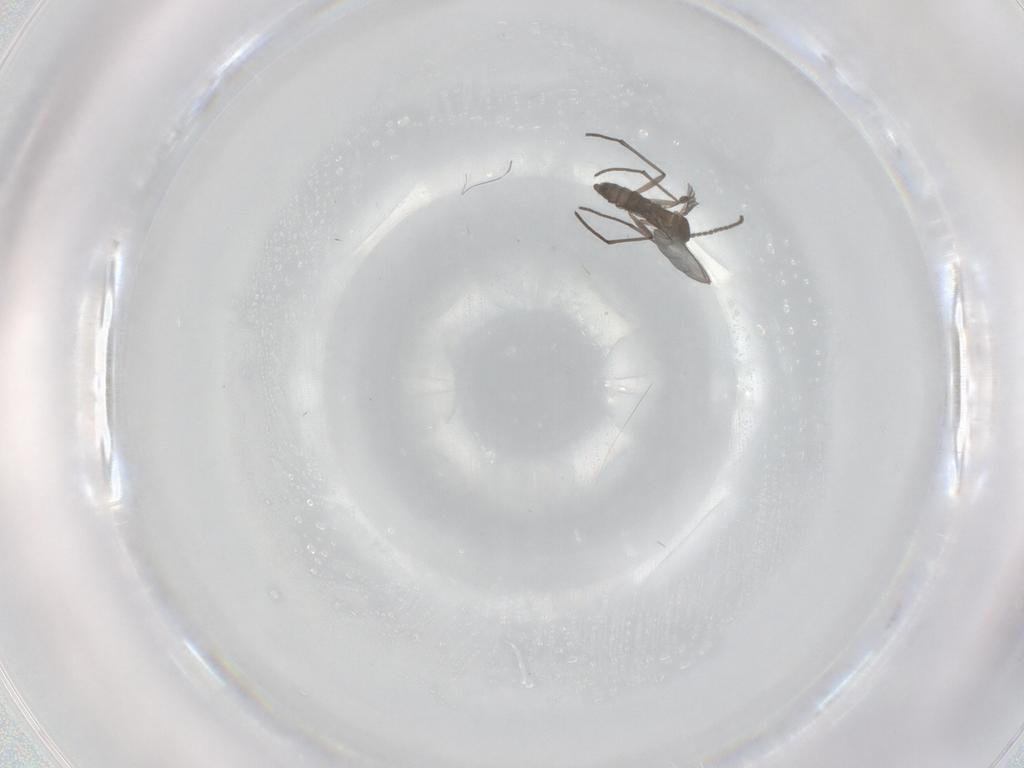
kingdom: Animalia
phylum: Arthropoda
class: Insecta
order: Diptera
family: Sciaridae
